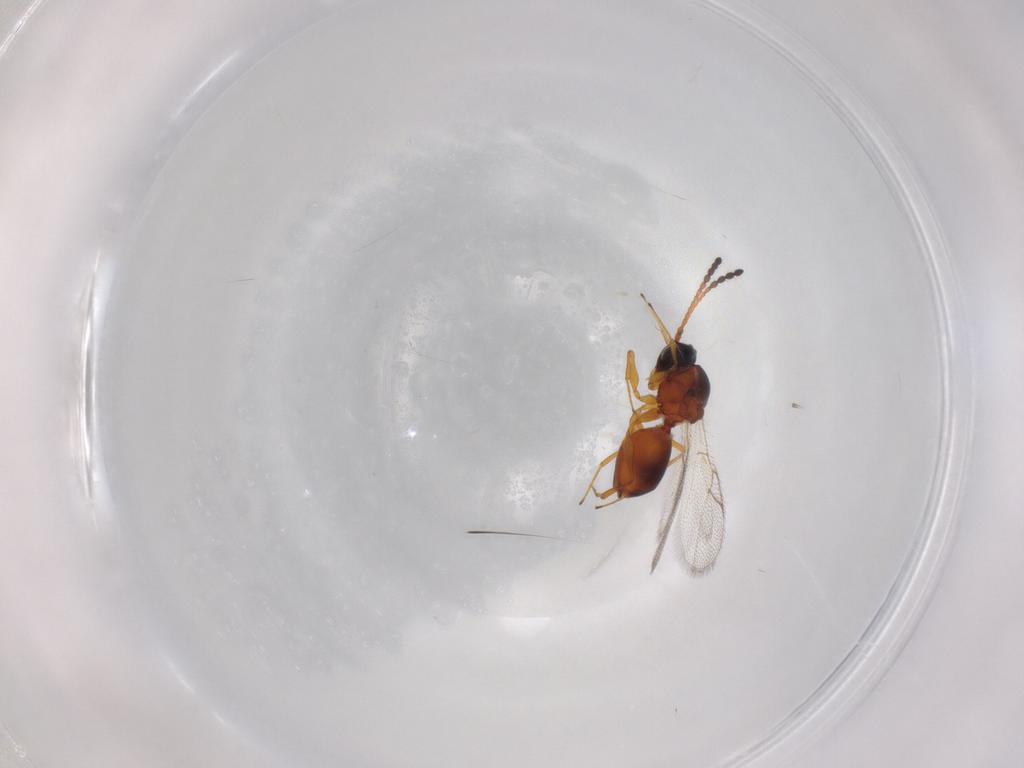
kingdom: Animalia
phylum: Arthropoda
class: Insecta
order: Hymenoptera
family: Figitidae
